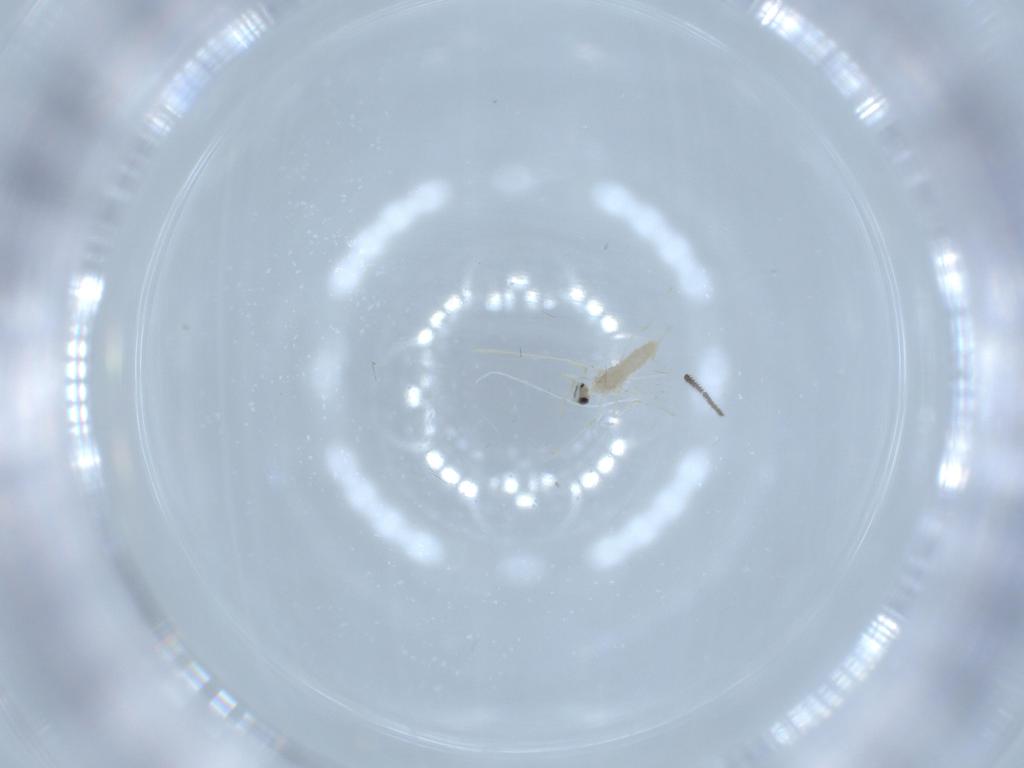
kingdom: Animalia
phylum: Arthropoda
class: Insecta
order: Diptera
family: Cecidomyiidae
